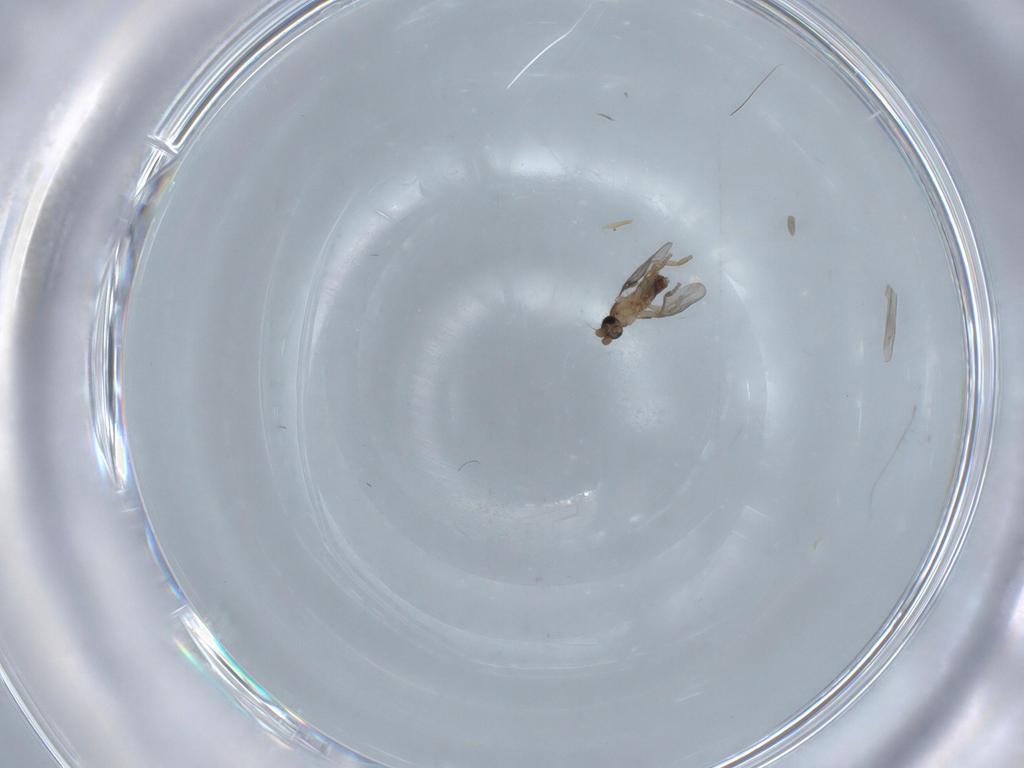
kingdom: Animalia
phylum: Arthropoda
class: Insecta
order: Diptera
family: Phoridae
